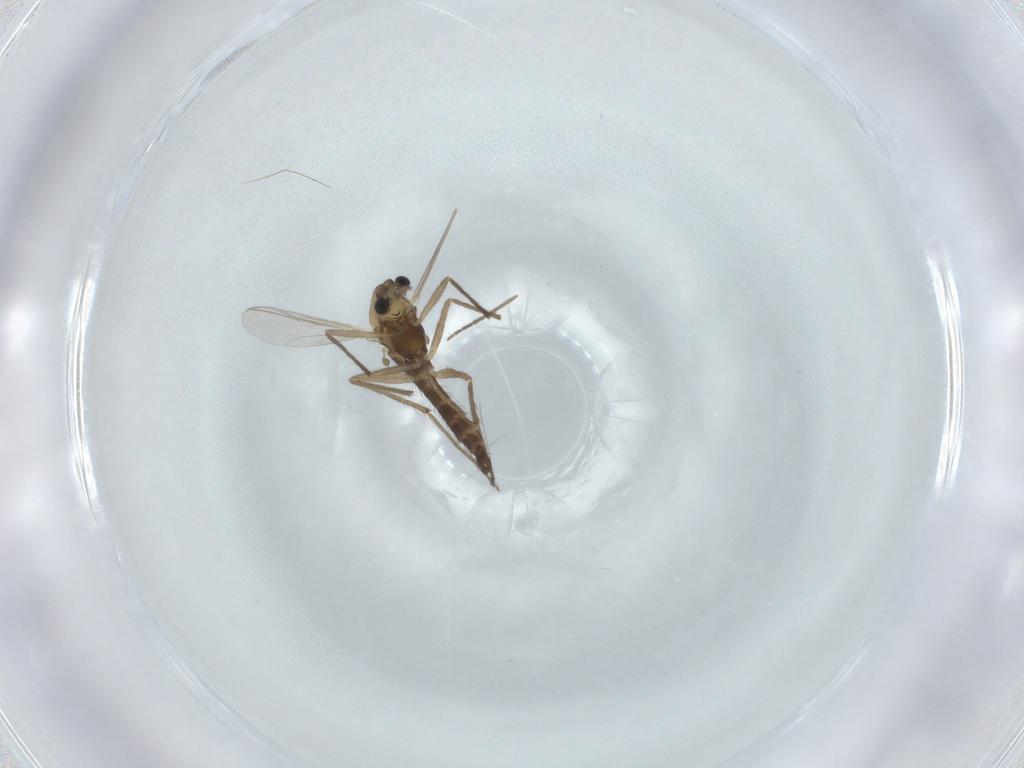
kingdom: Animalia
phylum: Arthropoda
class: Insecta
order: Diptera
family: Chironomidae
